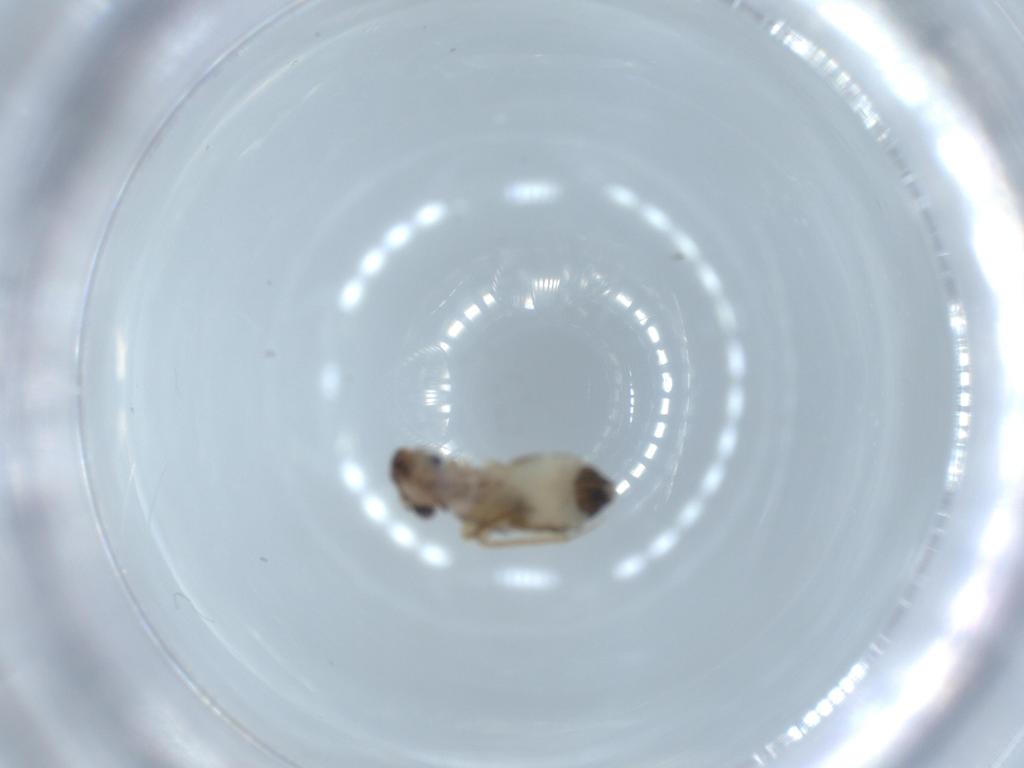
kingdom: Animalia
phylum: Arthropoda
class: Insecta
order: Psocodea
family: Lepidopsocidae
